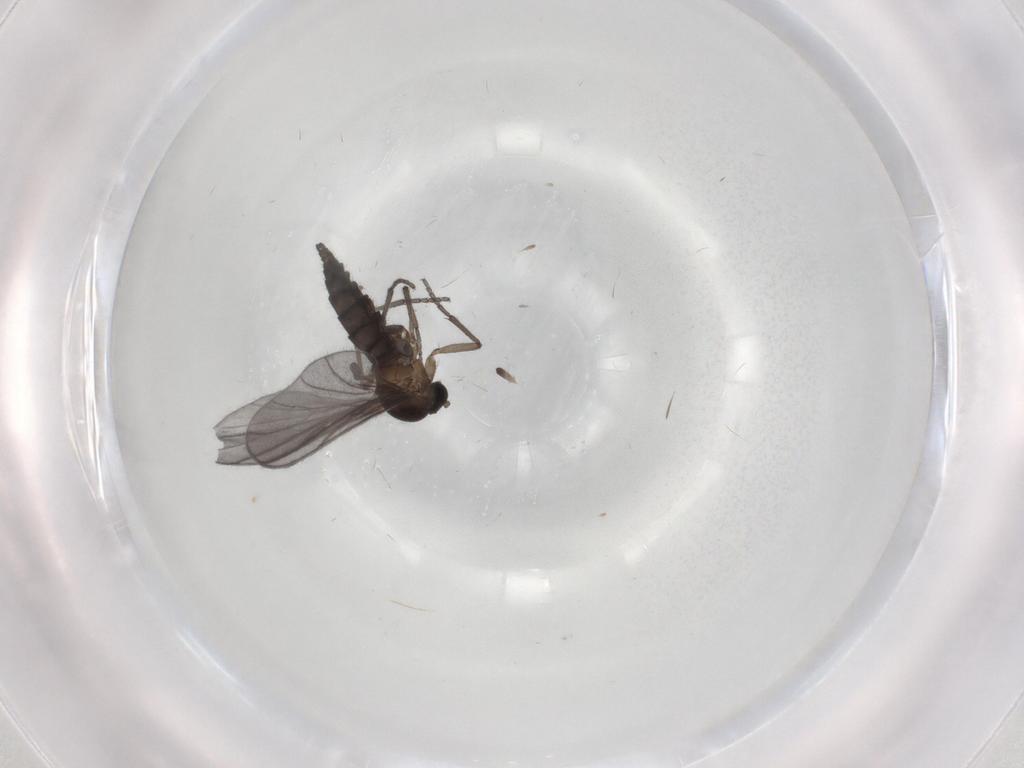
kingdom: Animalia
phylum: Arthropoda
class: Insecta
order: Diptera
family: Sciaridae
